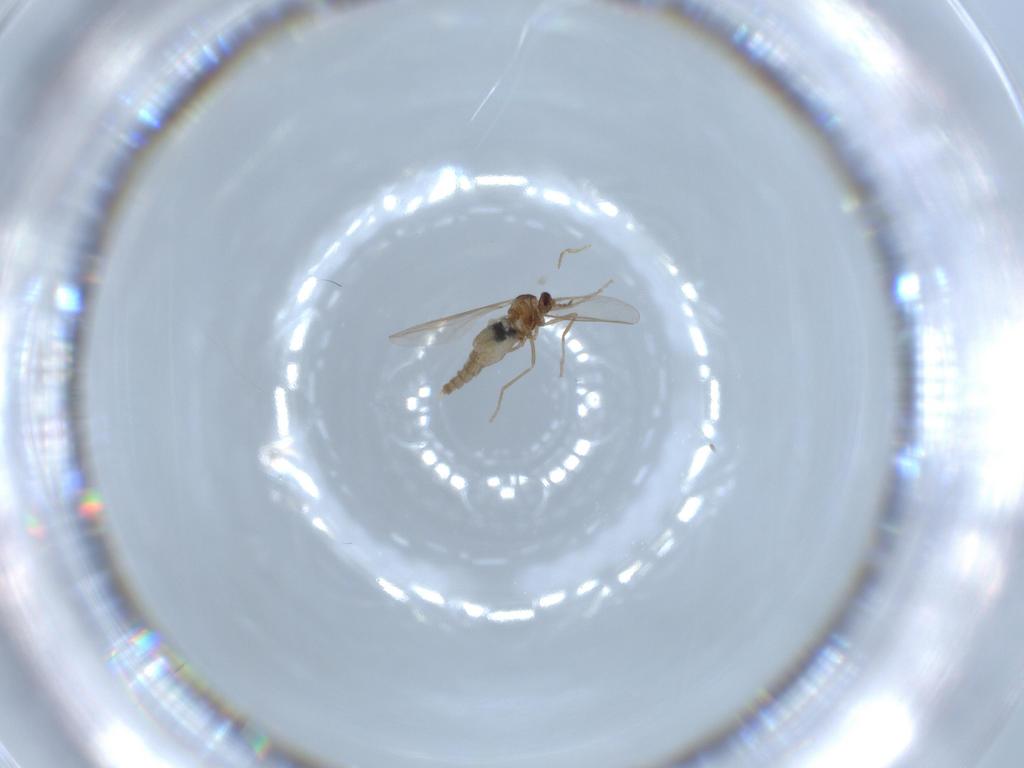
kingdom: Animalia
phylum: Arthropoda
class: Insecta
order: Diptera
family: Cecidomyiidae
